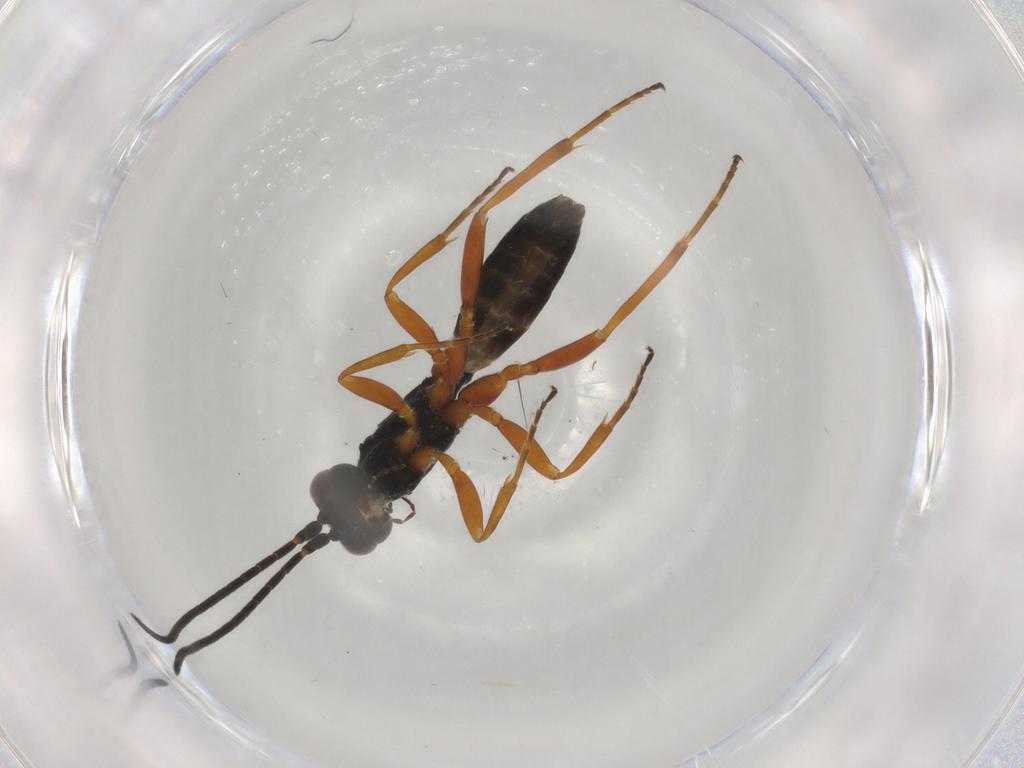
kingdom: Animalia
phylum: Arthropoda
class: Insecta
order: Hymenoptera
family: Ichneumonidae
